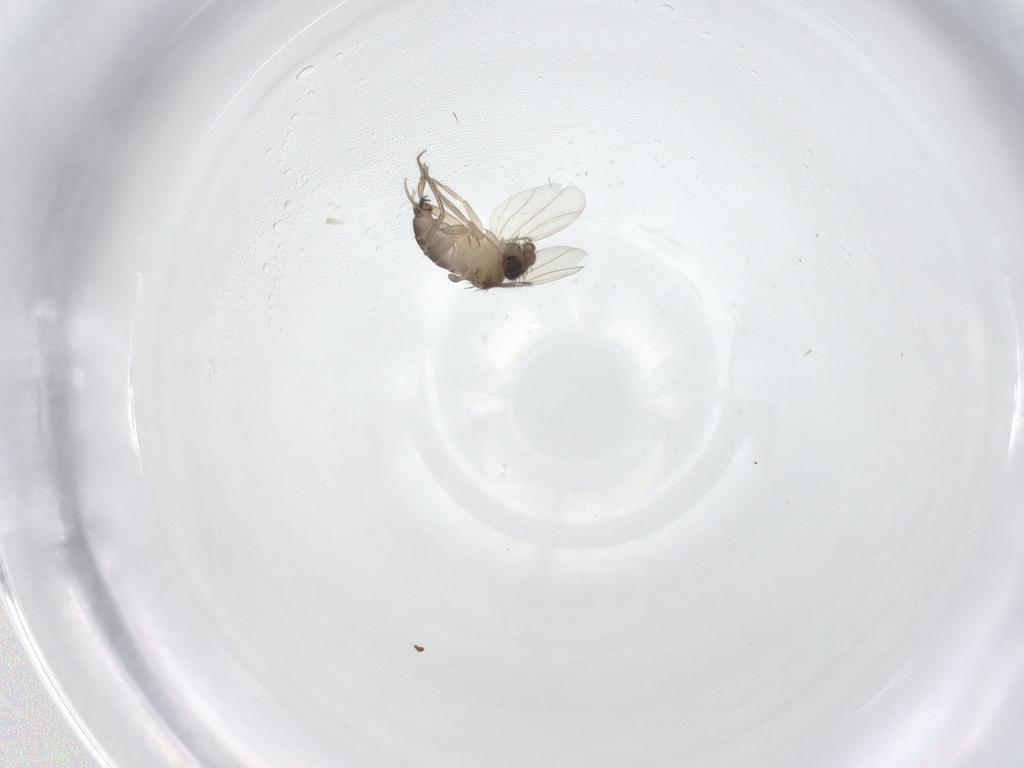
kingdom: Animalia
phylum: Arthropoda
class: Insecta
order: Diptera
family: Phoridae
